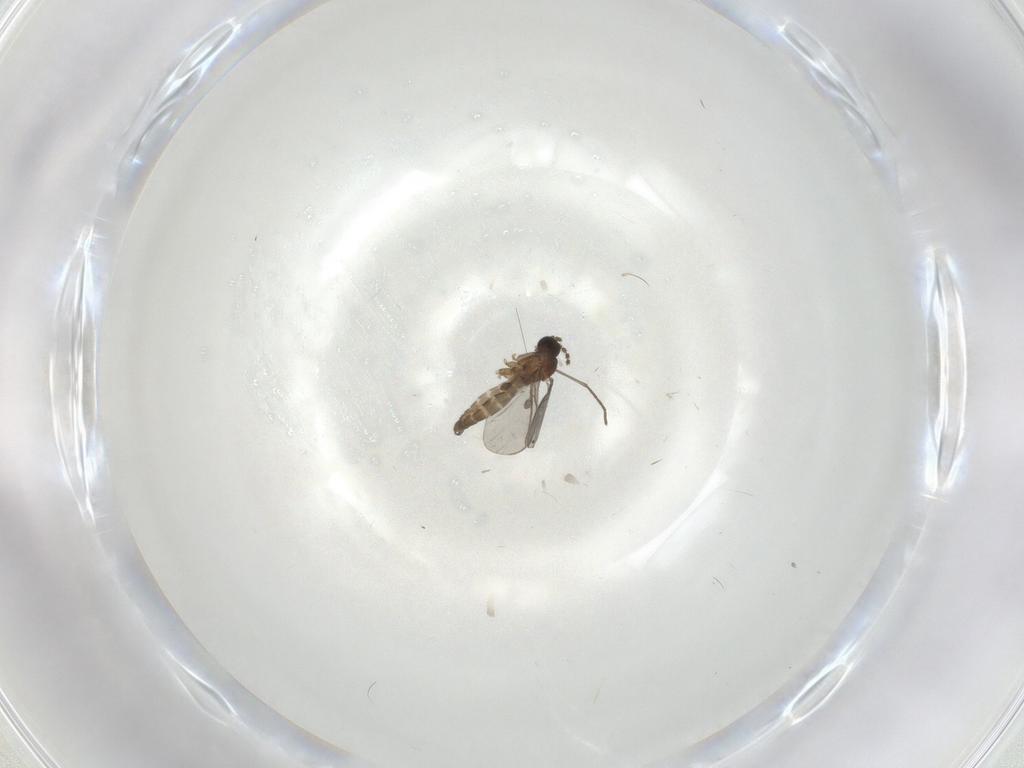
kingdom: Animalia
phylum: Arthropoda
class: Insecta
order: Diptera
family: Sciaridae
